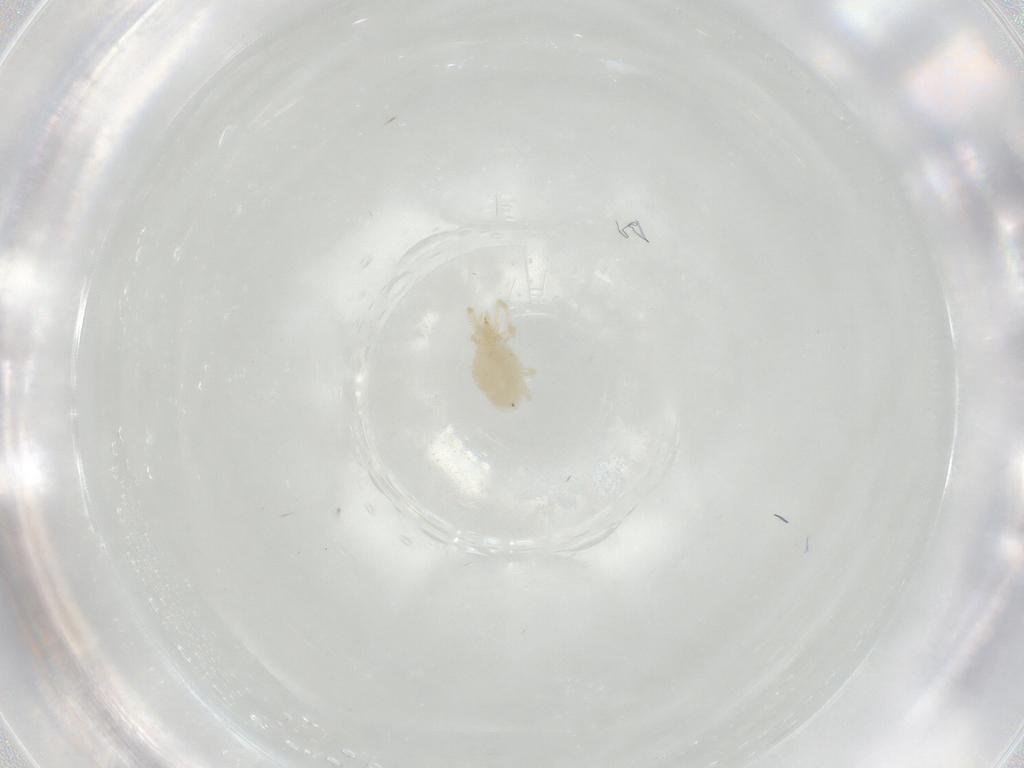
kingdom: Animalia
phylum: Arthropoda
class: Arachnida
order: Trombidiformes
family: Erythraeidae
